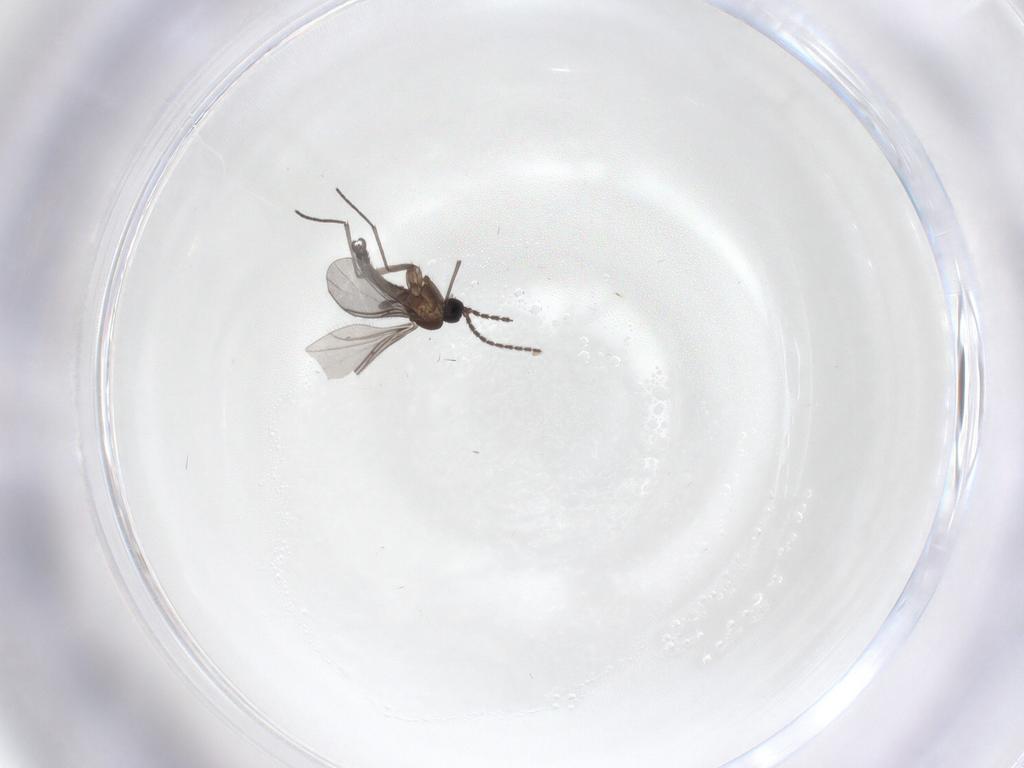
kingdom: Animalia
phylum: Arthropoda
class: Insecta
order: Diptera
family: Sciaridae
